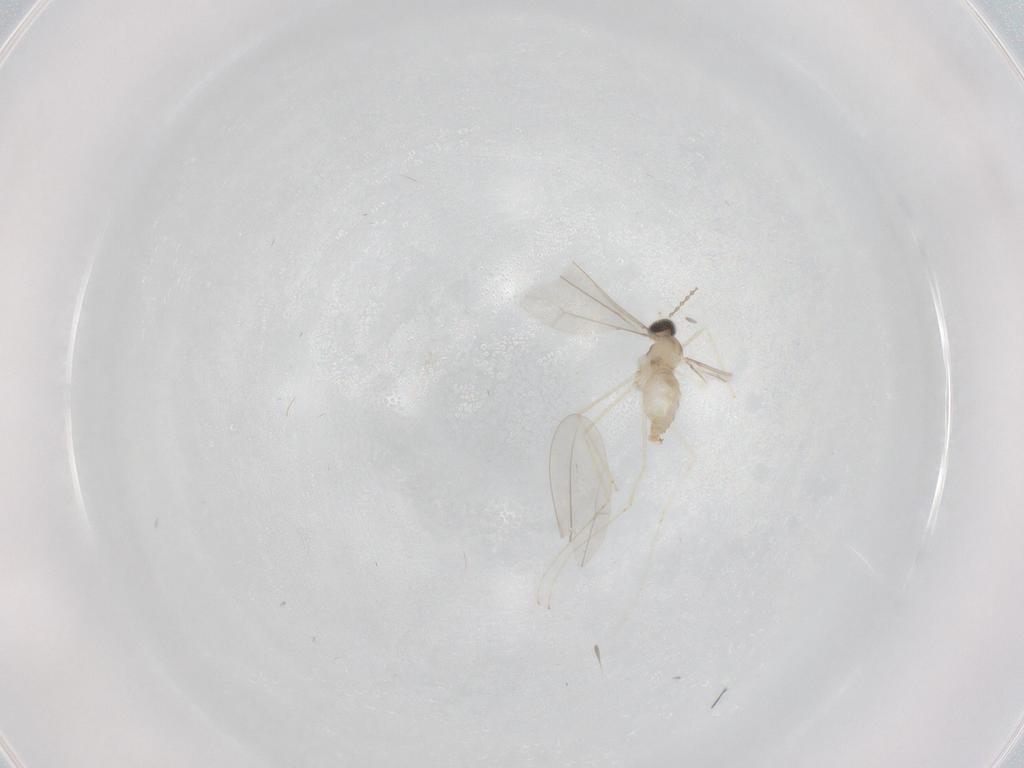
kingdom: Animalia
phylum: Arthropoda
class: Insecta
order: Diptera
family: Cecidomyiidae
